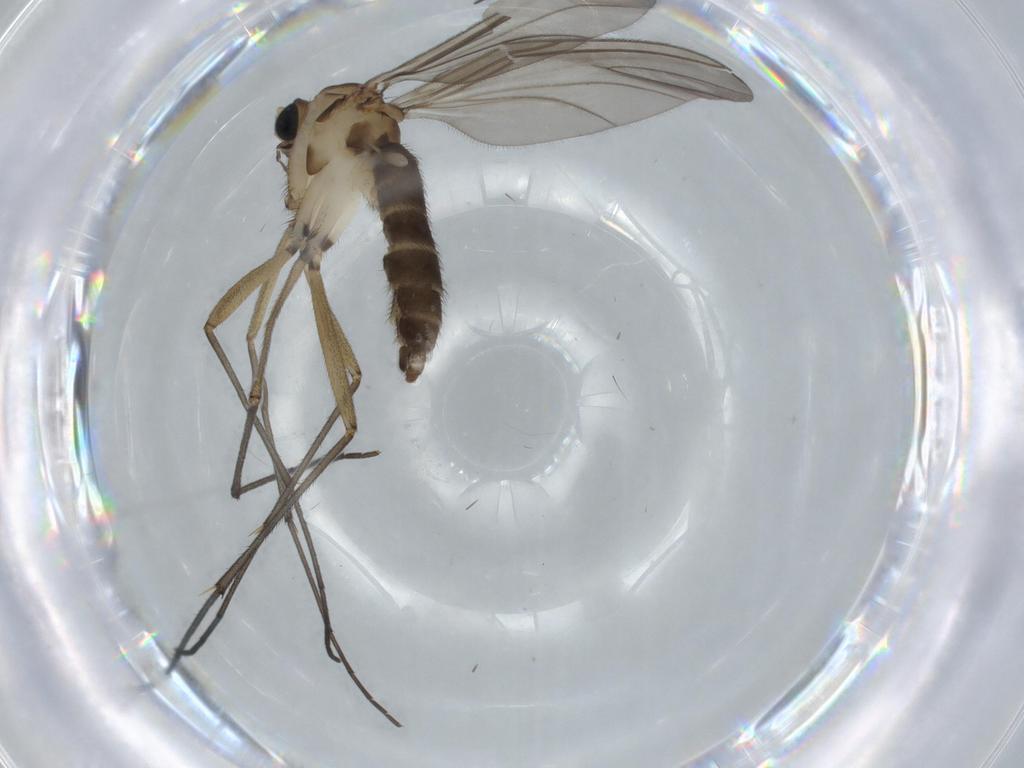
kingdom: Animalia
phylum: Arthropoda
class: Insecta
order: Diptera
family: Sciaridae
